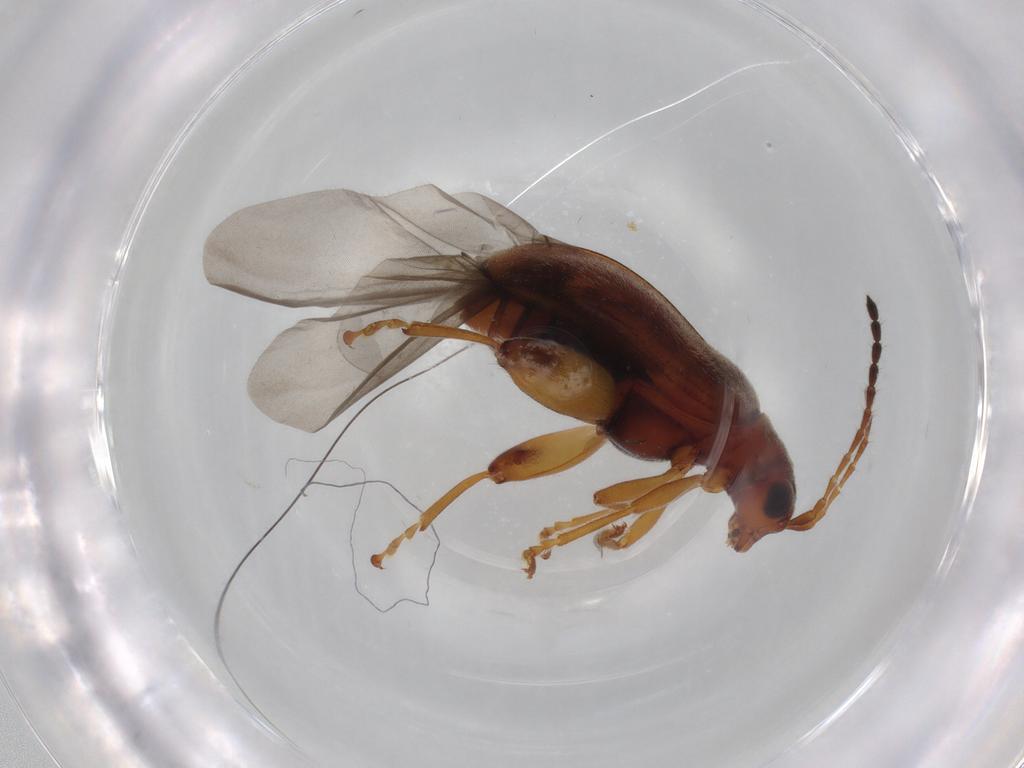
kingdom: Animalia
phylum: Arthropoda
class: Insecta
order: Coleoptera
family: Chrysomelidae
